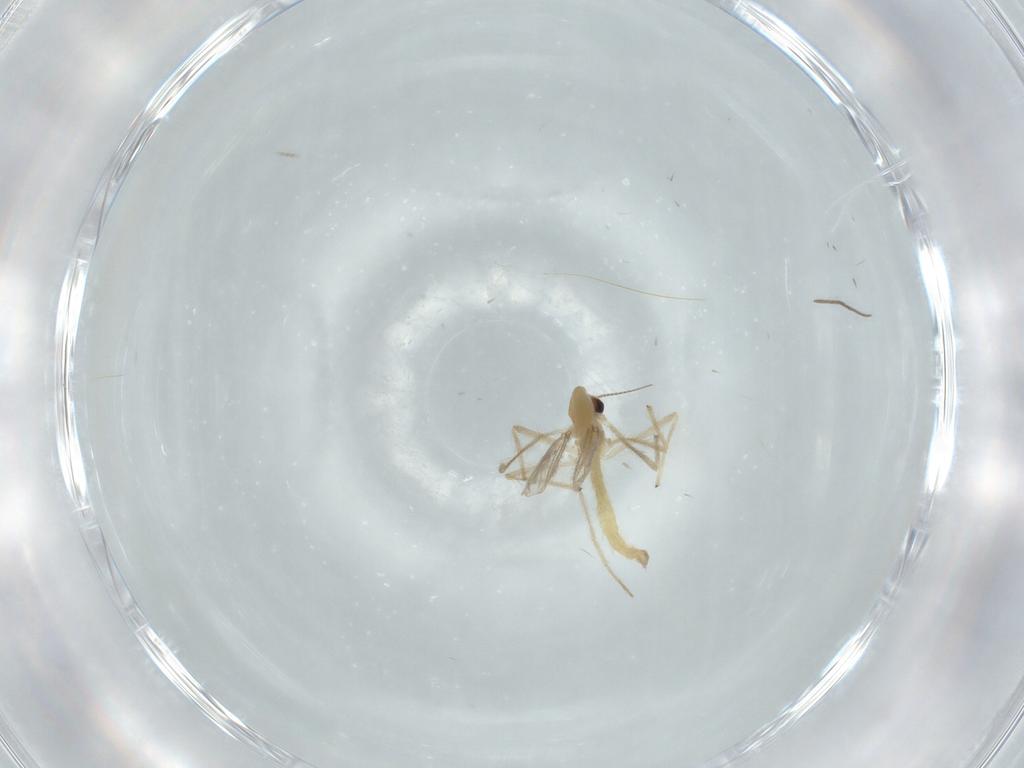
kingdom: Animalia
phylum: Arthropoda
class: Insecta
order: Diptera
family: Chironomidae
